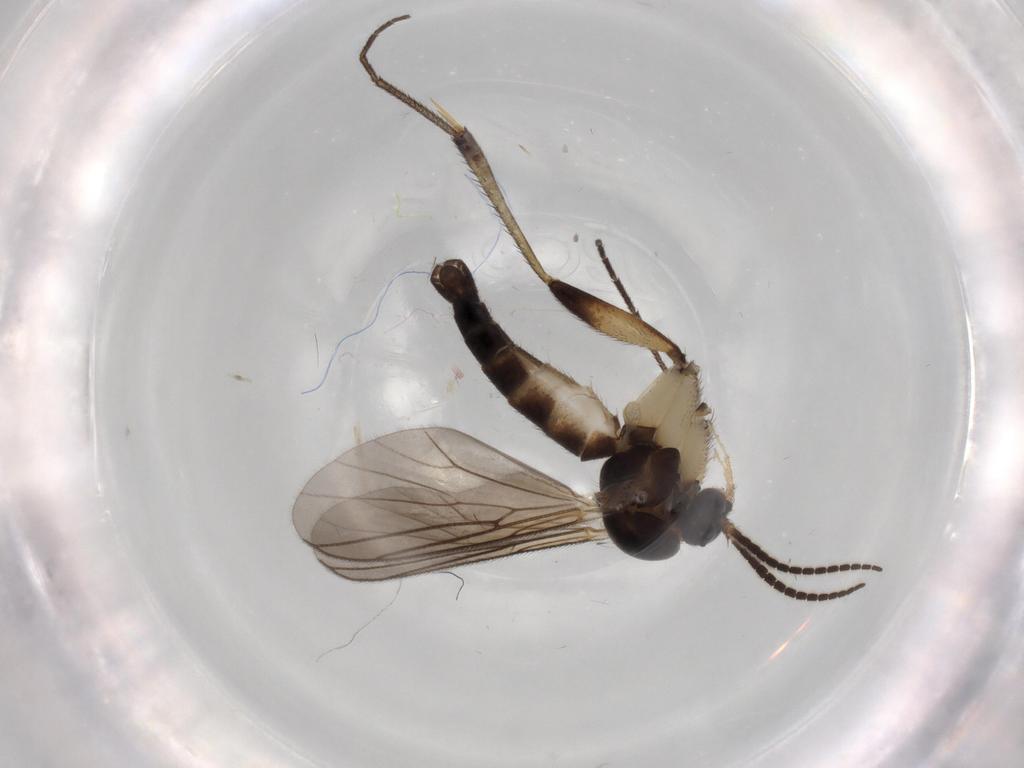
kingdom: Animalia
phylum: Arthropoda
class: Insecta
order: Diptera
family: Mycetophilidae
